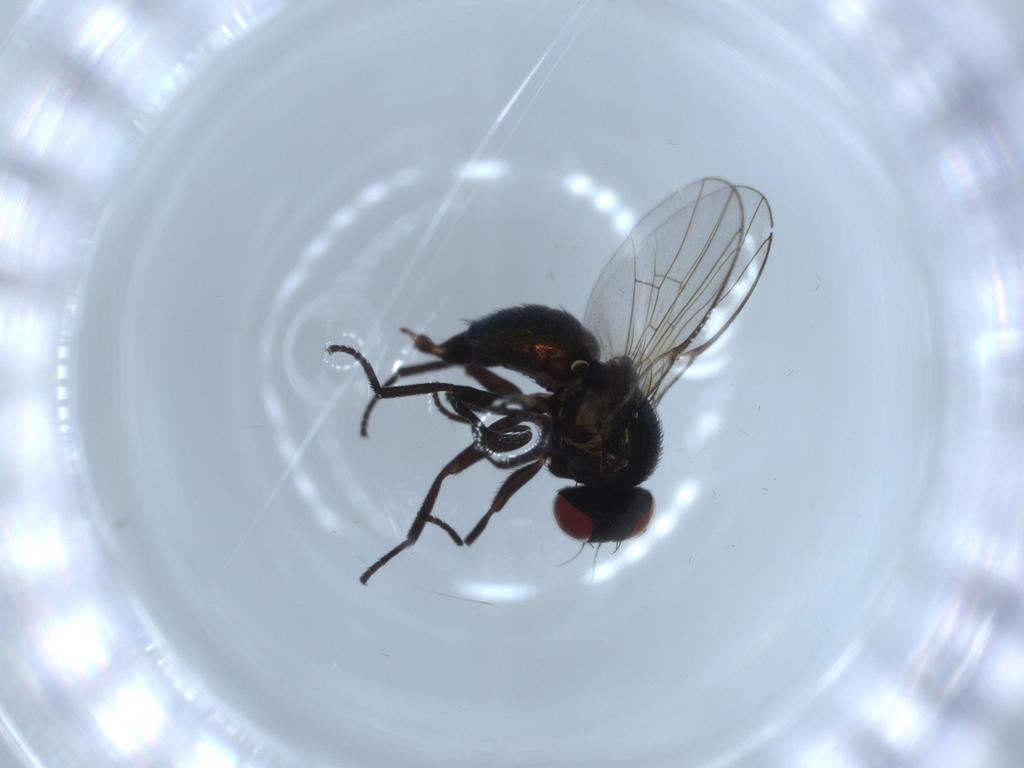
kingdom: Animalia
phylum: Arthropoda
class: Insecta
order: Diptera
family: Agromyzidae
